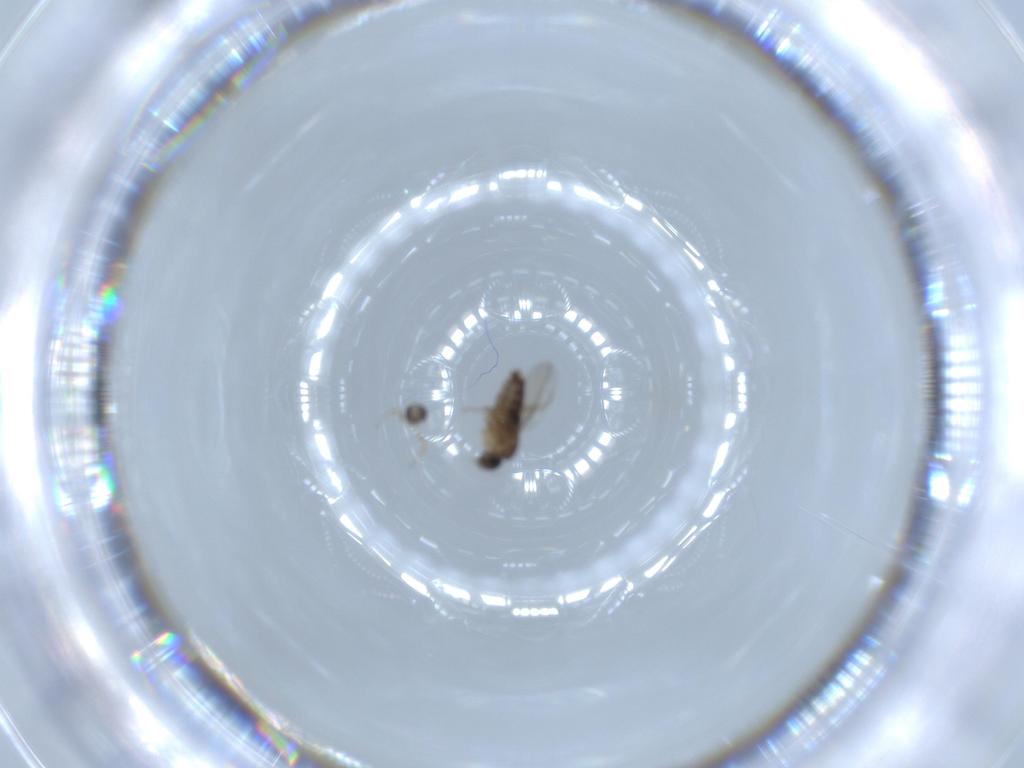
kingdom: Animalia
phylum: Arthropoda
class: Insecta
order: Diptera
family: Phoridae
